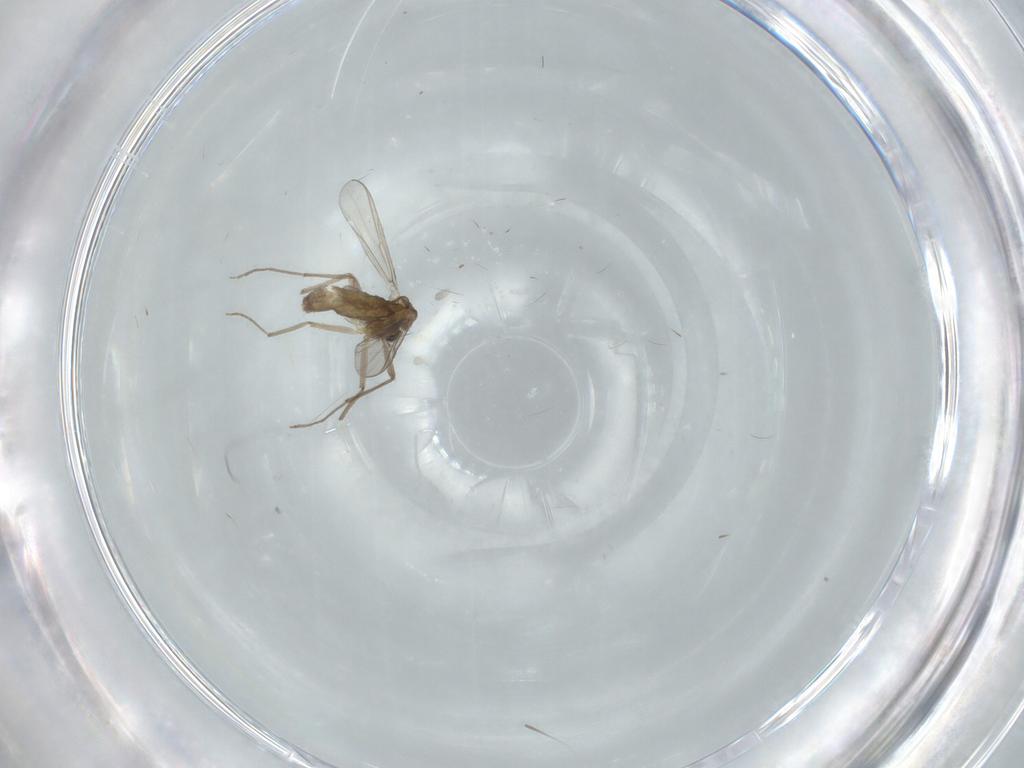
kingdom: Animalia
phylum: Arthropoda
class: Insecta
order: Diptera
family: Chironomidae
